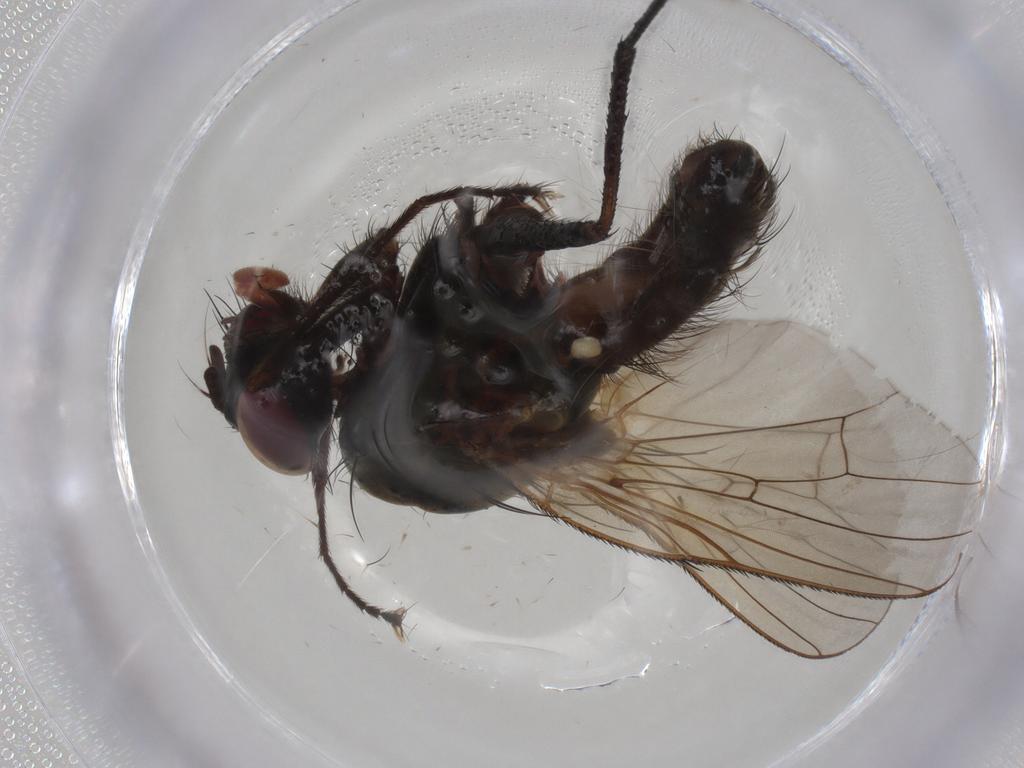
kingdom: Animalia
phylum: Arthropoda
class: Insecta
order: Diptera
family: Anthomyiidae
